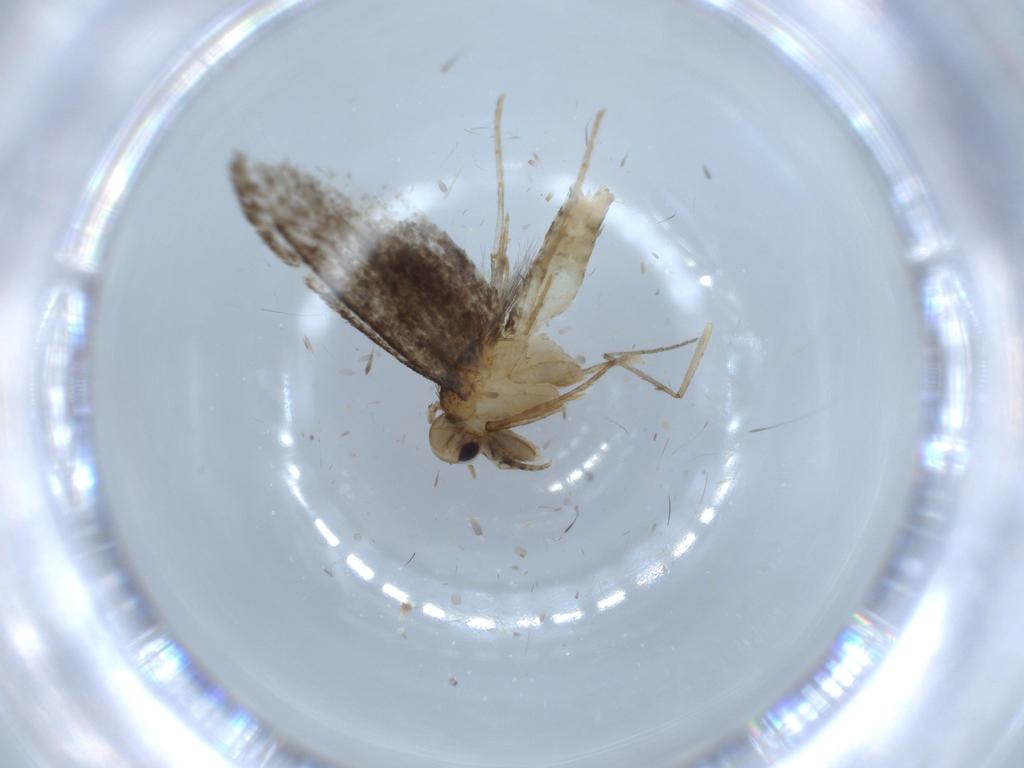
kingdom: Animalia
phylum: Arthropoda
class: Insecta
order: Lepidoptera
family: Tineidae
